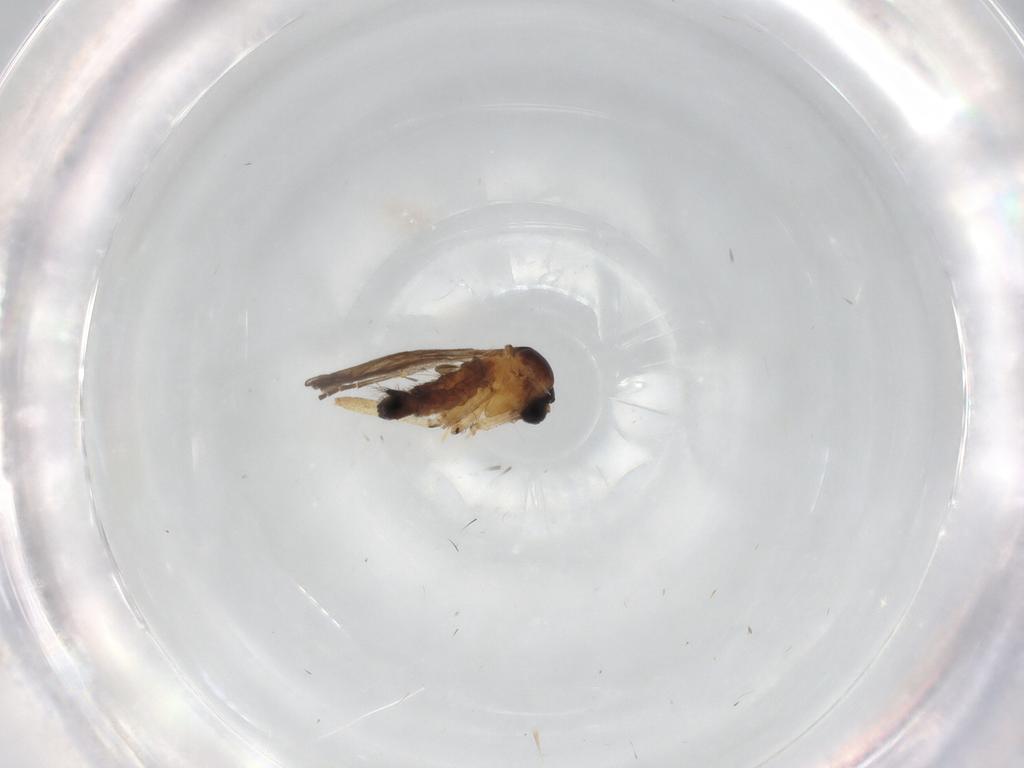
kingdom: Animalia
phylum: Arthropoda
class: Insecta
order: Diptera
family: Sciaridae
